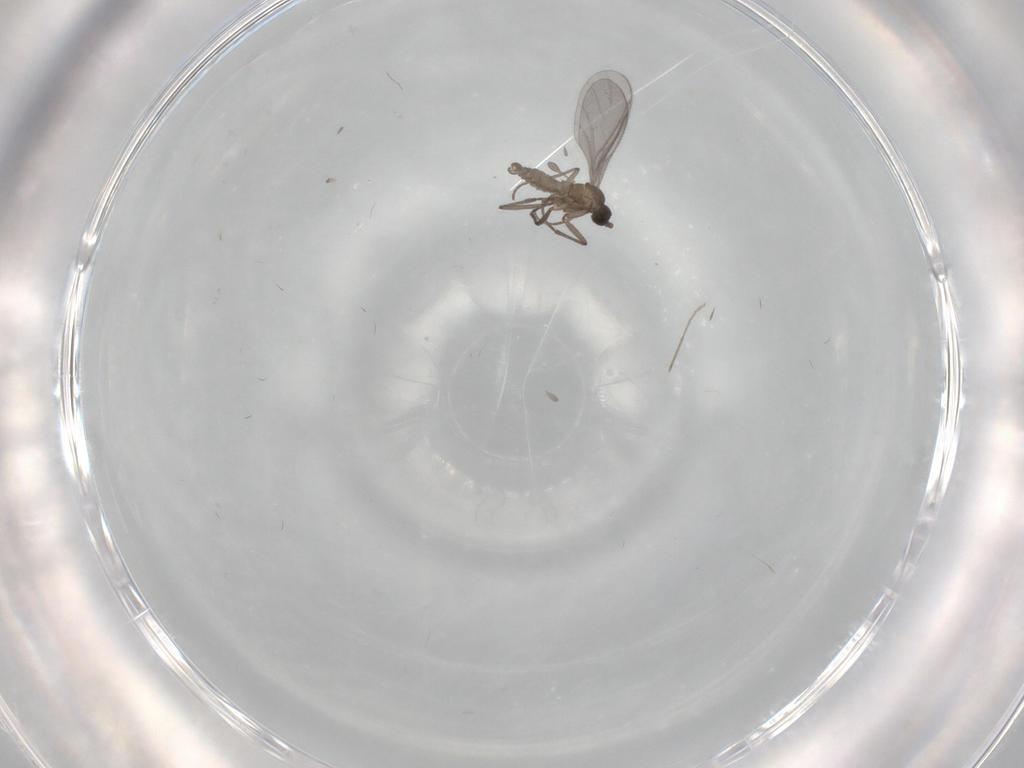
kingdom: Animalia
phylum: Arthropoda
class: Insecta
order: Diptera
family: Sciaridae
